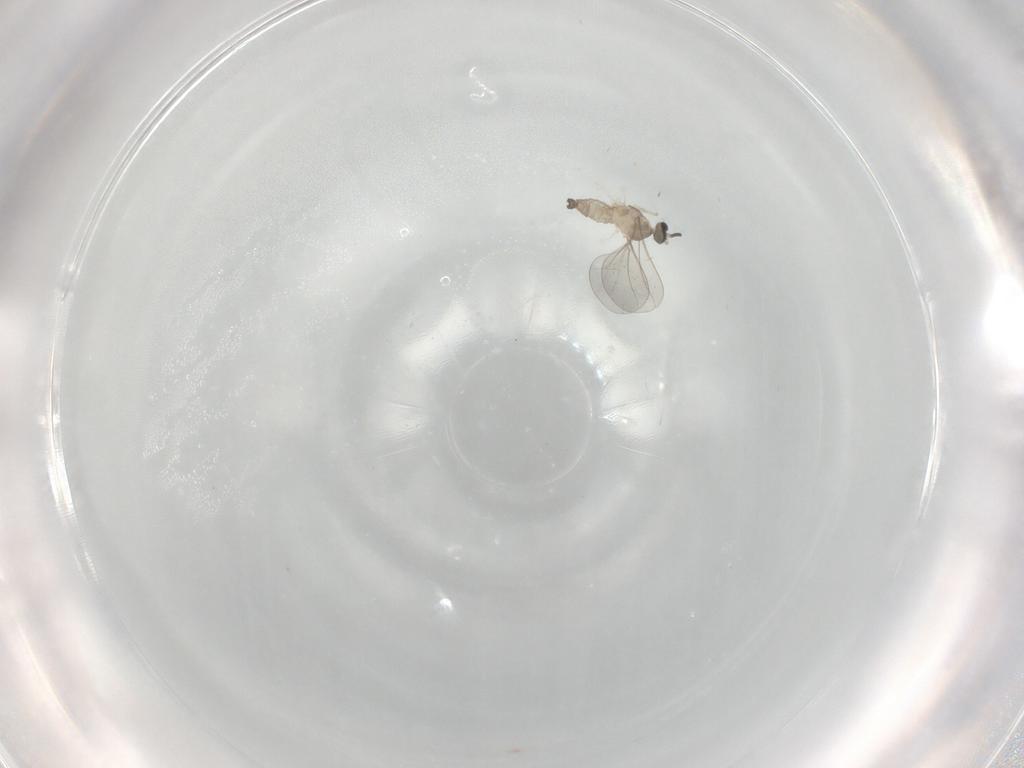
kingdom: Animalia
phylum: Arthropoda
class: Insecta
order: Diptera
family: Cecidomyiidae
